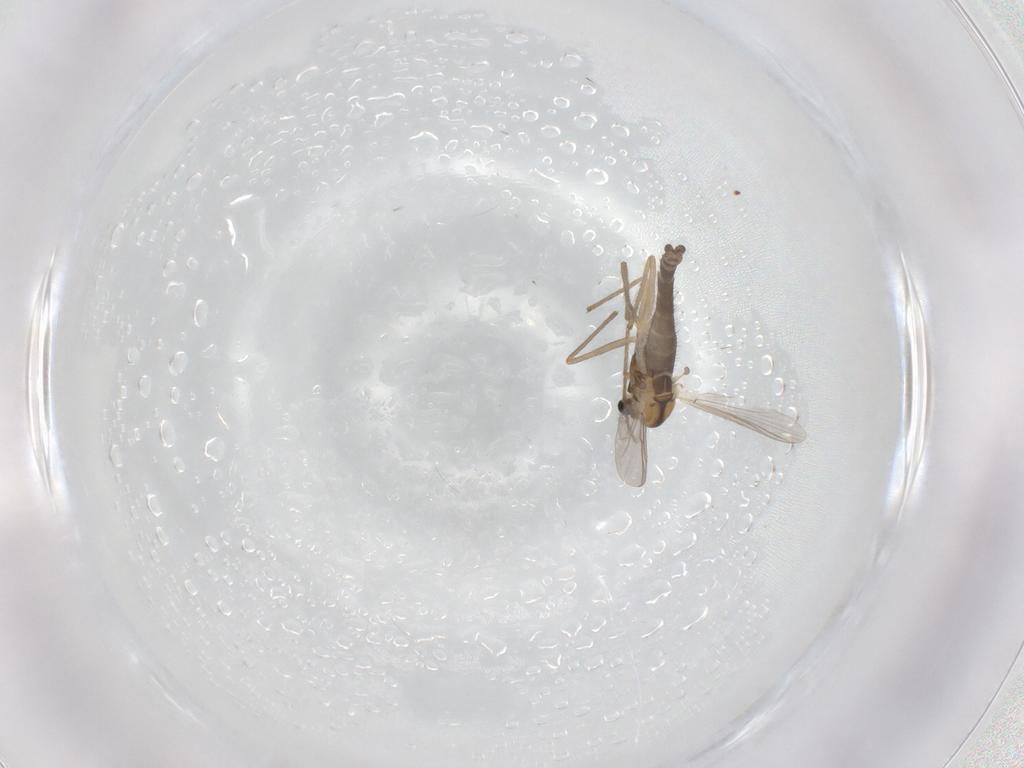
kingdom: Animalia
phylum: Arthropoda
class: Insecta
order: Diptera
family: Chironomidae
